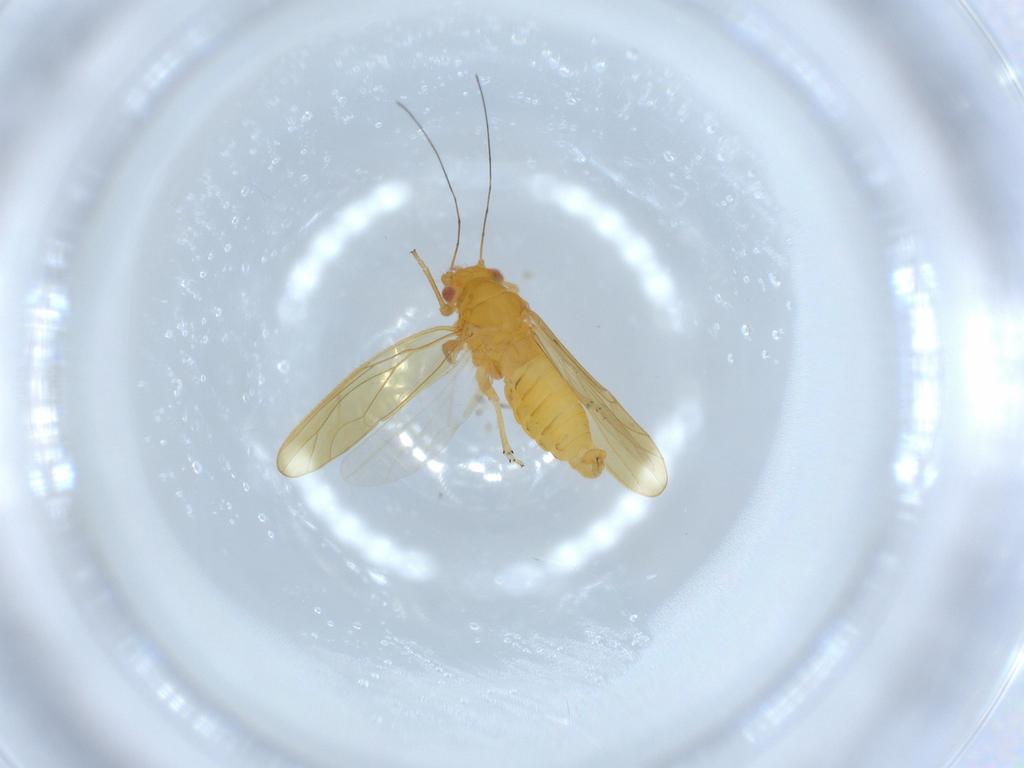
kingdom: Animalia
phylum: Arthropoda
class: Insecta
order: Hemiptera
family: Psyllidae
